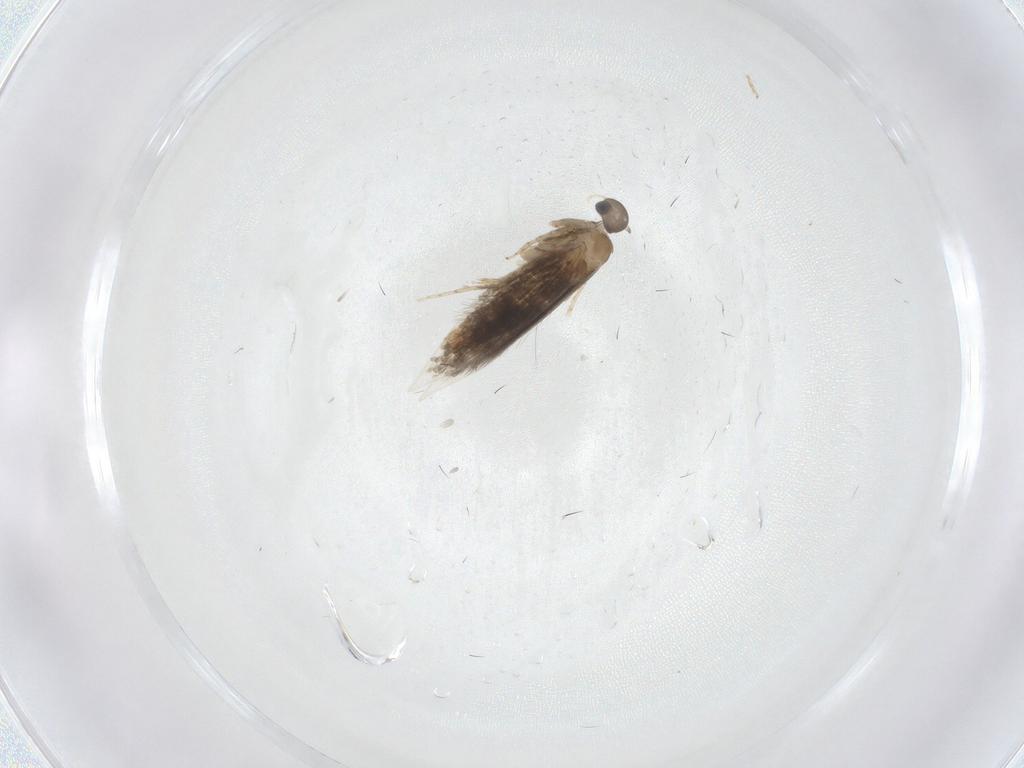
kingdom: Animalia
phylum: Arthropoda
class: Insecta
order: Lepidoptera
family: Heliozelidae
